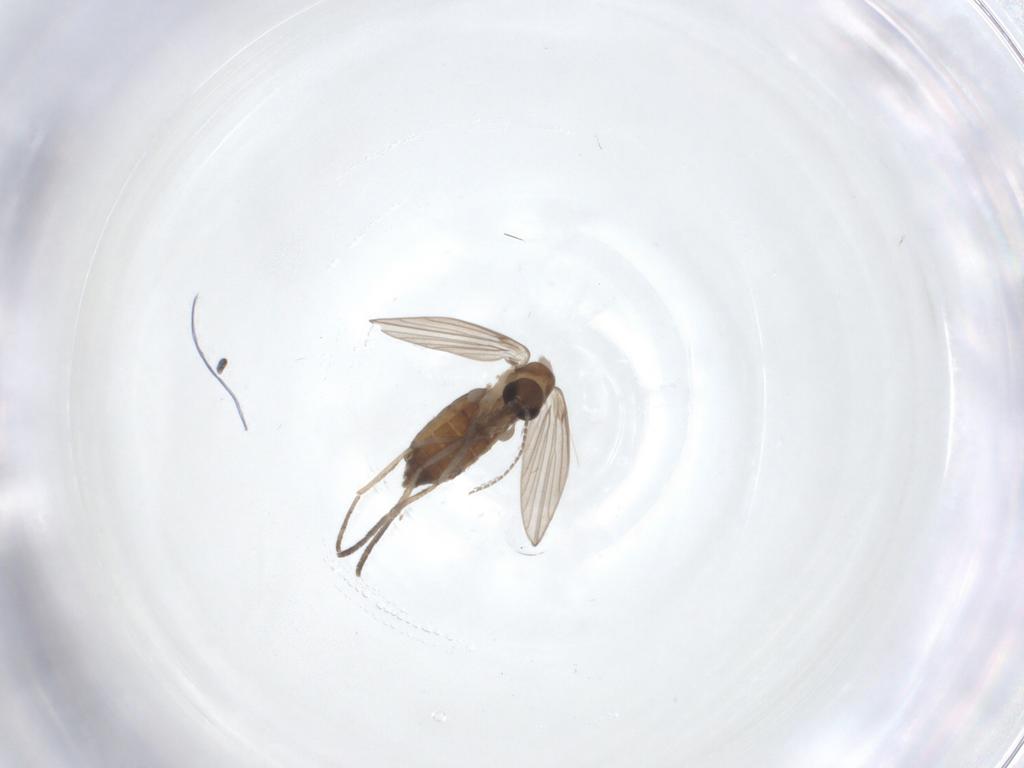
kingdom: Animalia
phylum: Arthropoda
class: Insecta
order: Diptera
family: Psychodidae
